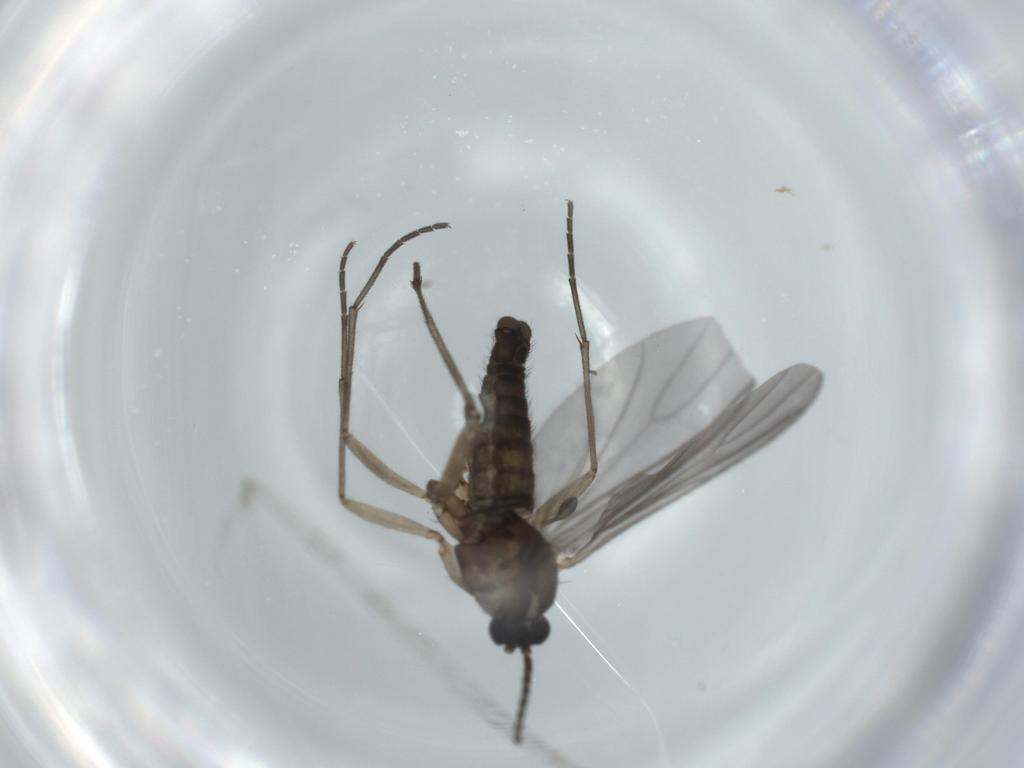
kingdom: Animalia
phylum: Arthropoda
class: Insecta
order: Diptera
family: Sciaridae
